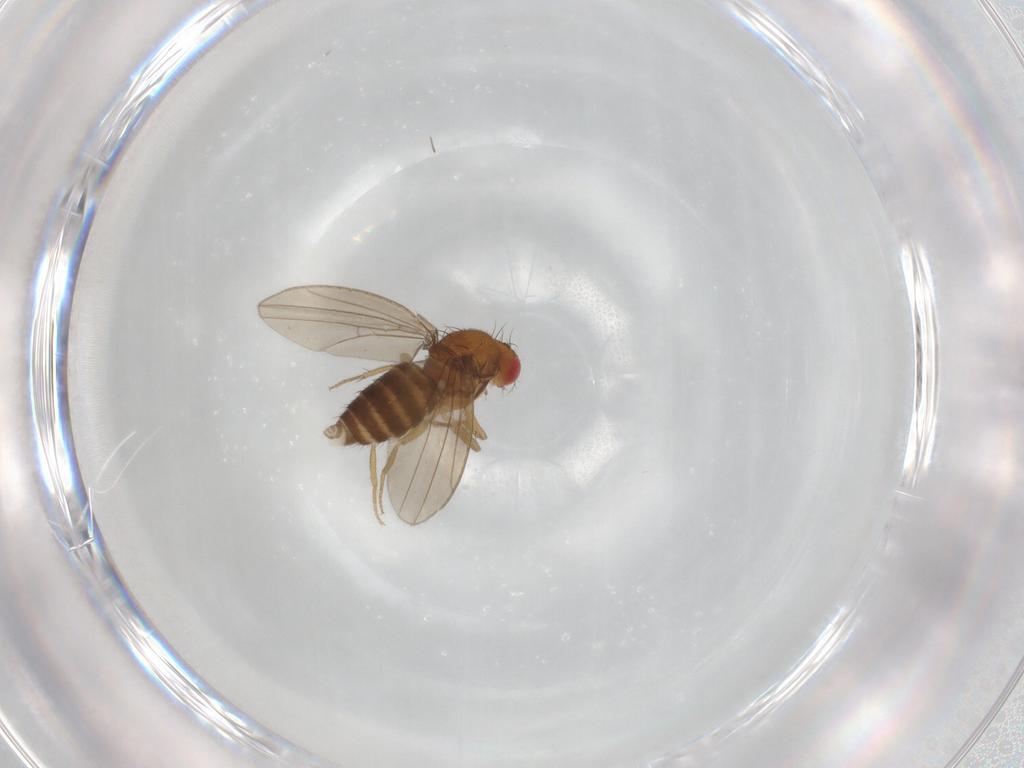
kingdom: Animalia
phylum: Arthropoda
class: Insecta
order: Diptera
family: Drosophilidae
